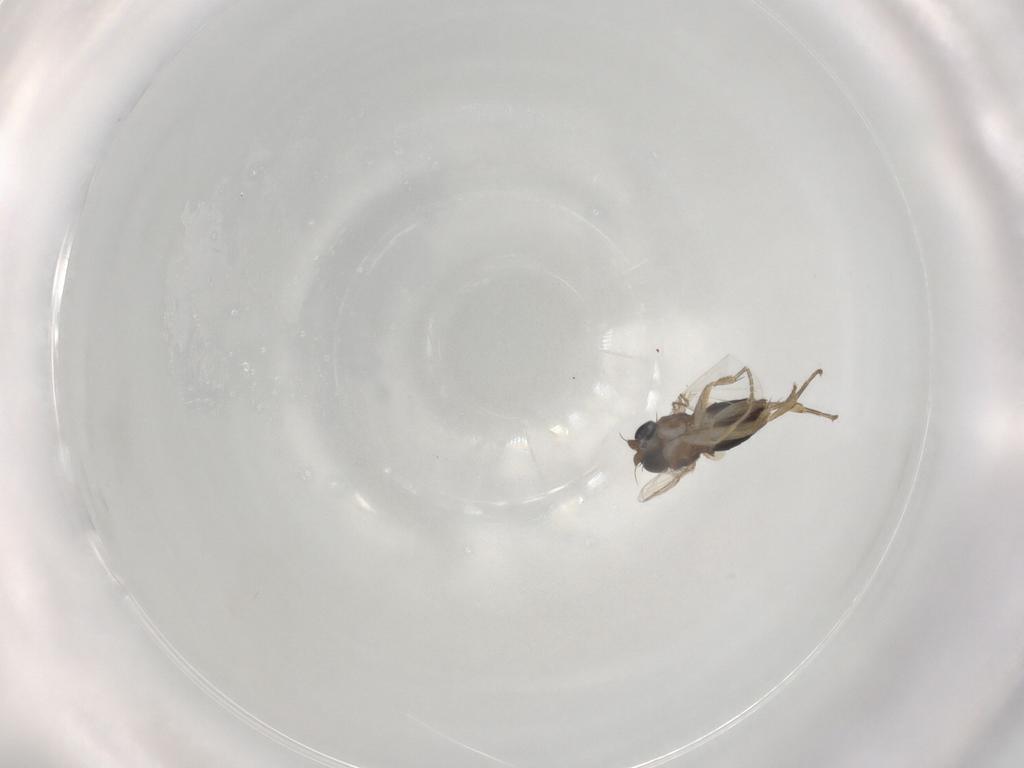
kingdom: Animalia
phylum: Arthropoda
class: Insecta
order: Diptera
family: Phoridae
